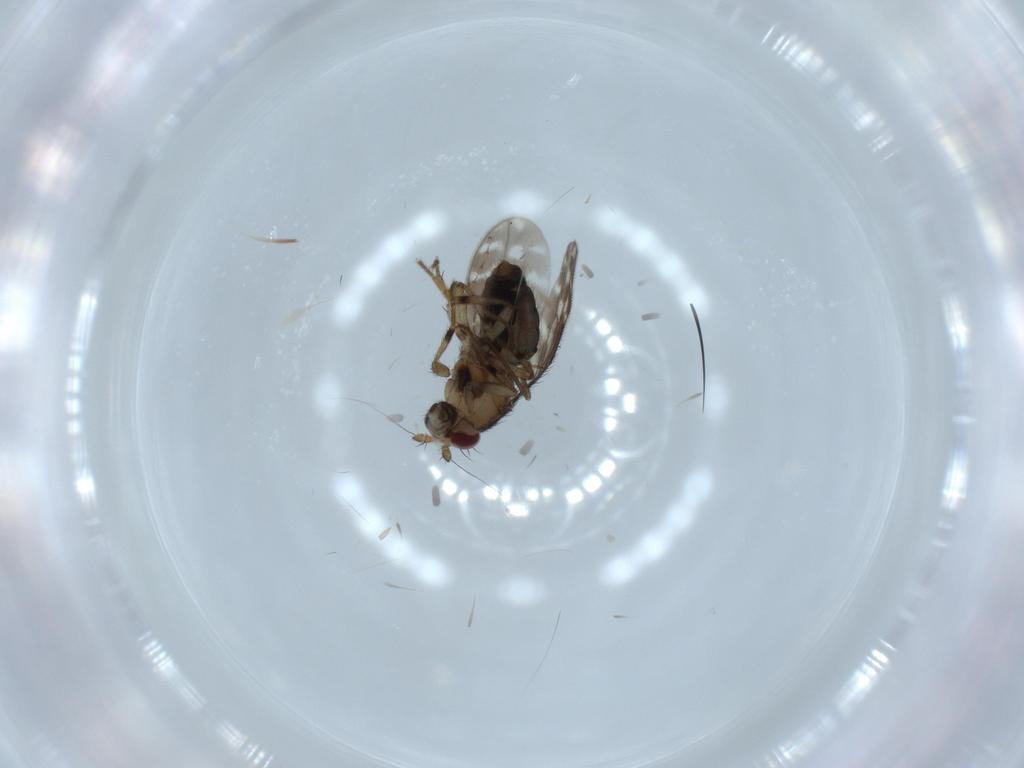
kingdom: Animalia
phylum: Arthropoda
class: Insecta
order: Diptera
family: Sphaeroceridae
